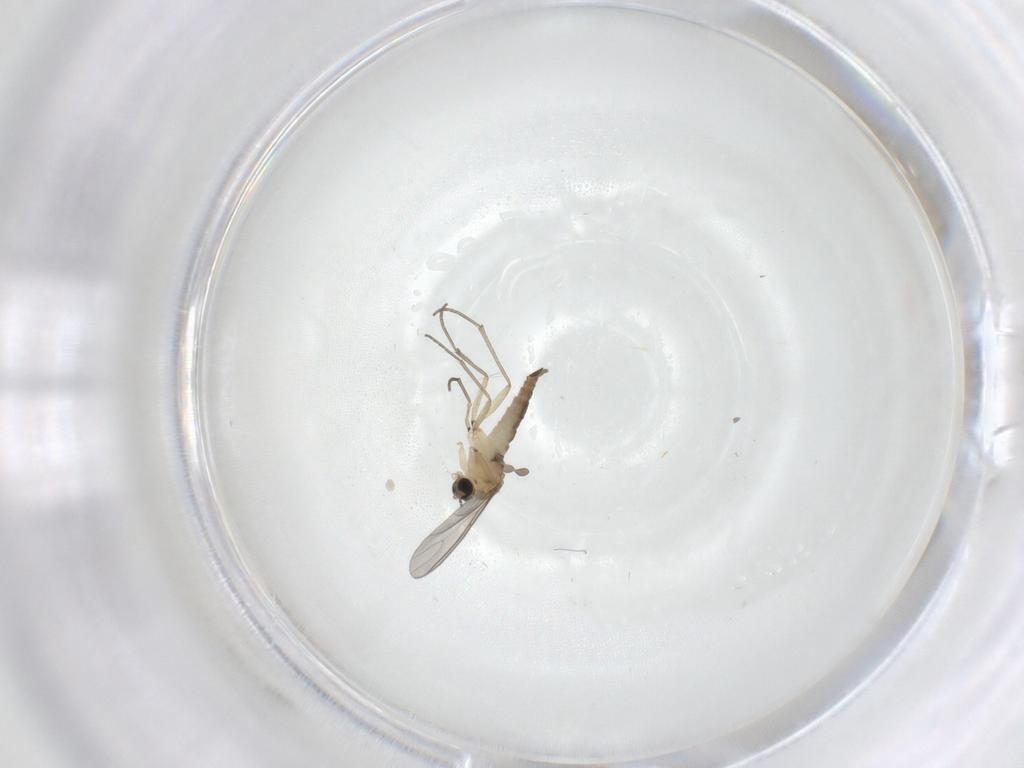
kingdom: Animalia
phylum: Arthropoda
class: Insecta
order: Diptera
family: Sciaridae
